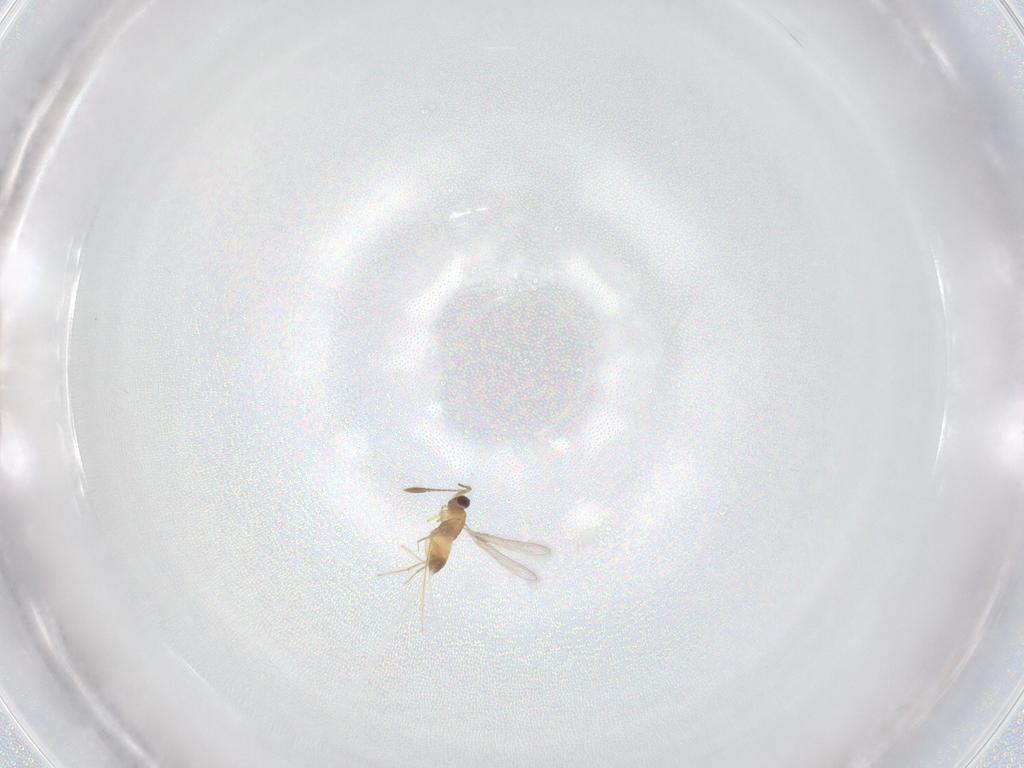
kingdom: Animalia
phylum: Arthropoda
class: Insecta
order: Hymenoptera
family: Mymaridae
